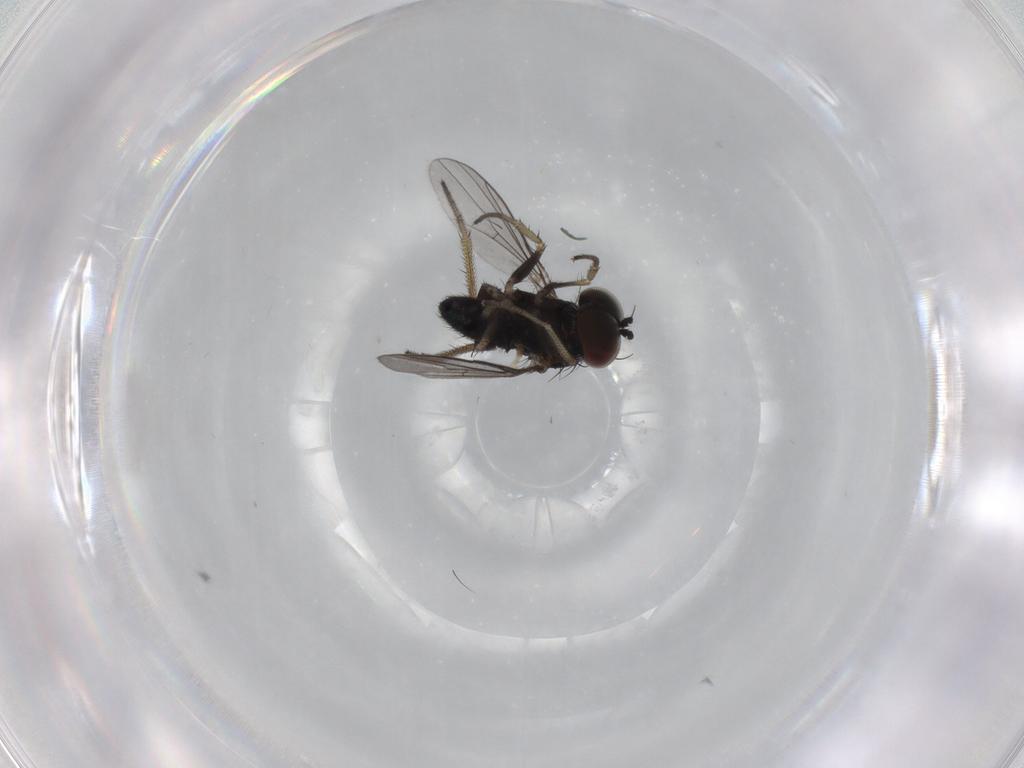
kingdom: Animalia
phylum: Arthropoda
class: Insecta
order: Diptera
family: Dolichopodidae
